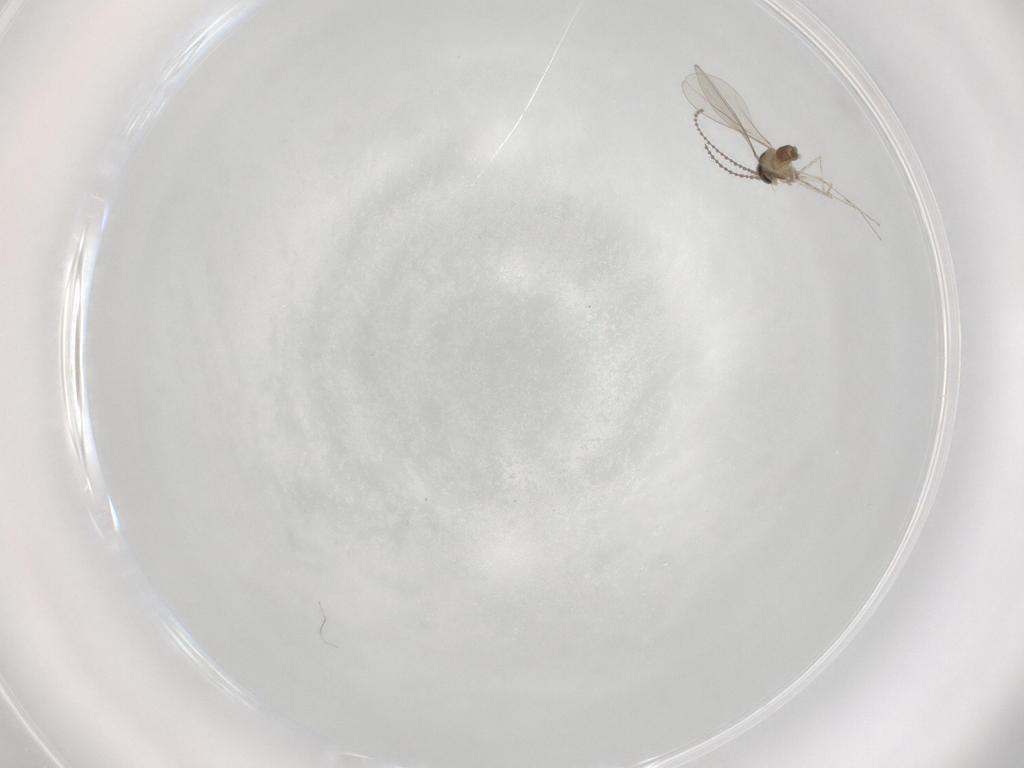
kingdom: Animalia
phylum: Arthropoda
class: Insecta
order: Diptera
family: Cecidomyiidae
